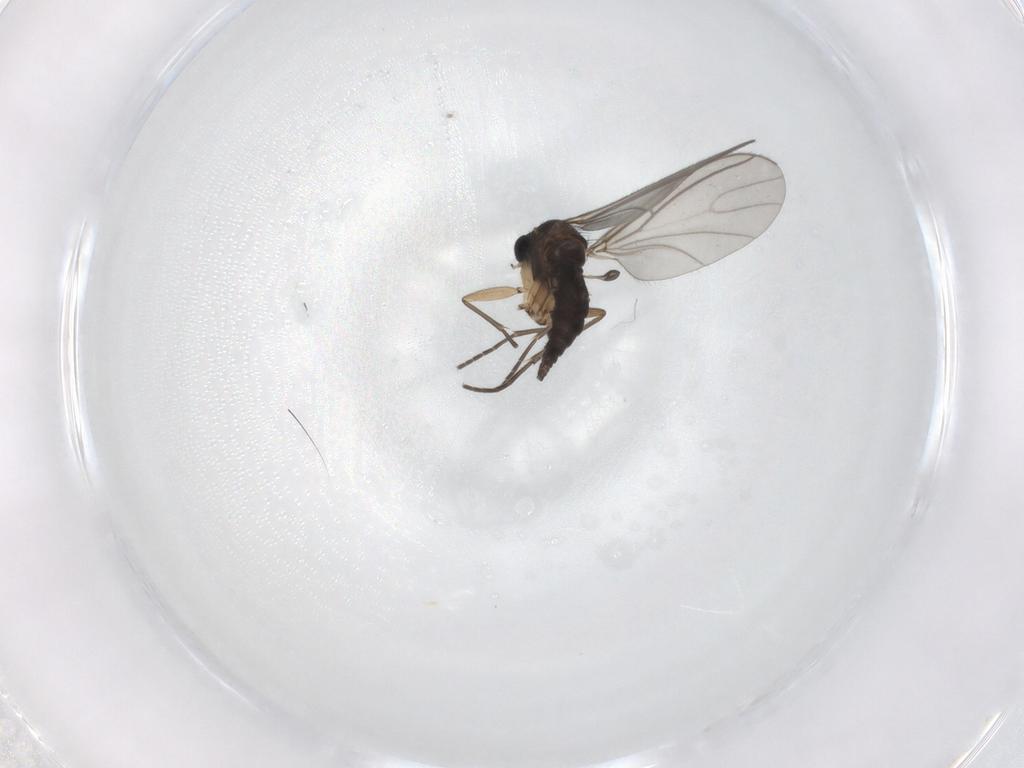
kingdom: Animalia
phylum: Arthropoda
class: Insecta
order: Diptera
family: Sciaridae
